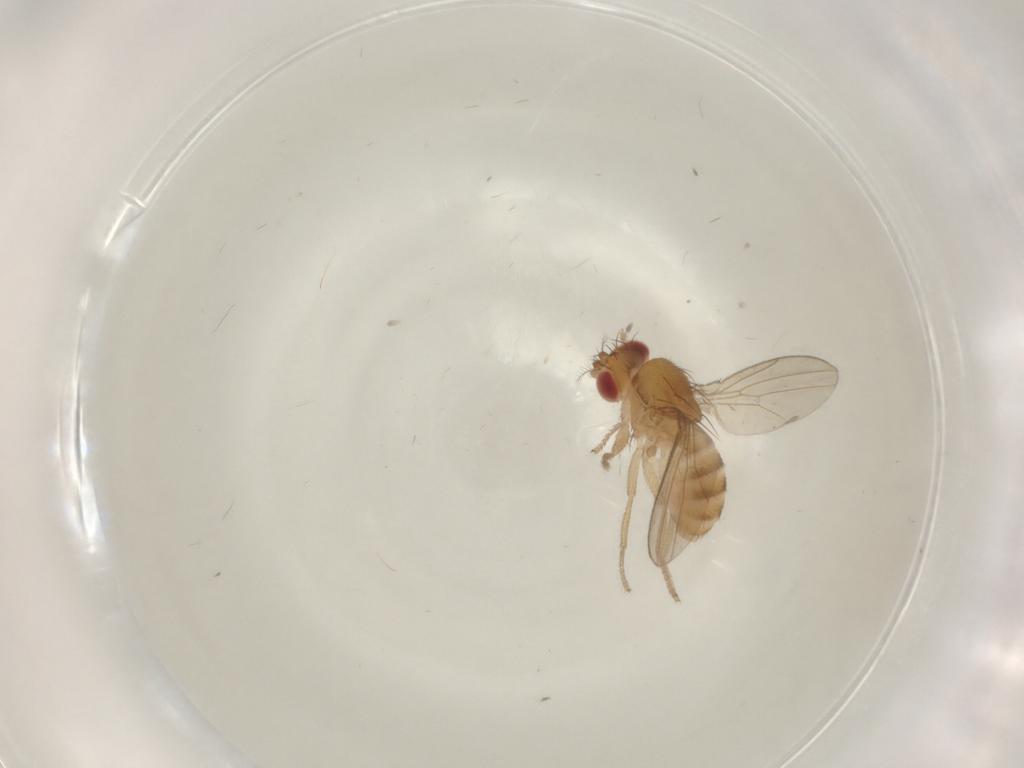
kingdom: Animalia
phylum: Arthropoda
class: Insecta
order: Diptera
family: Drosophilidae
